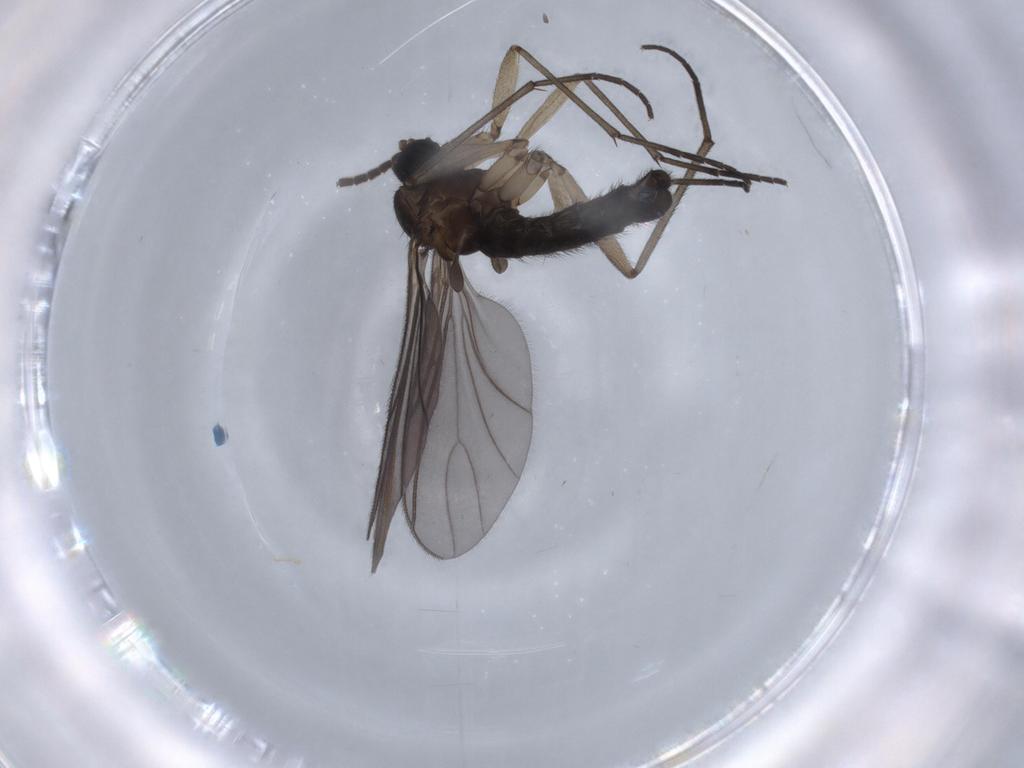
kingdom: Animalia
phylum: Arthropoda
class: Insecta
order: Diptera
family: Sciaridae
